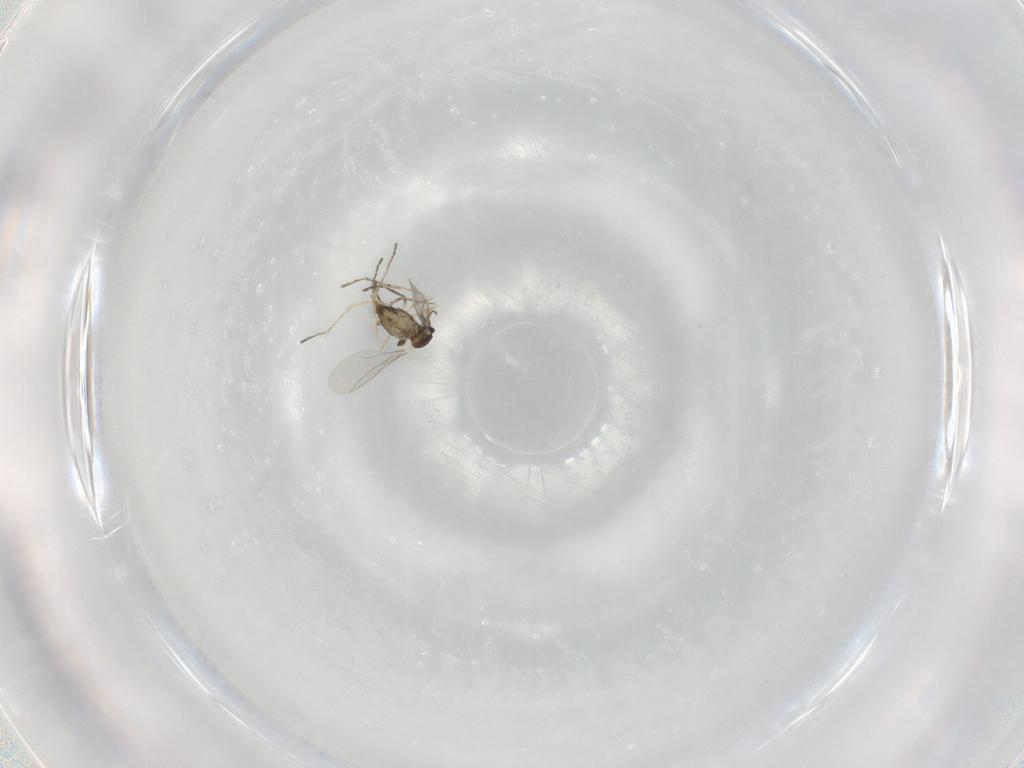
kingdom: Animalia
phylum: Arthropoda
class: Insecta
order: Diptera
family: Cecidomyiidae
